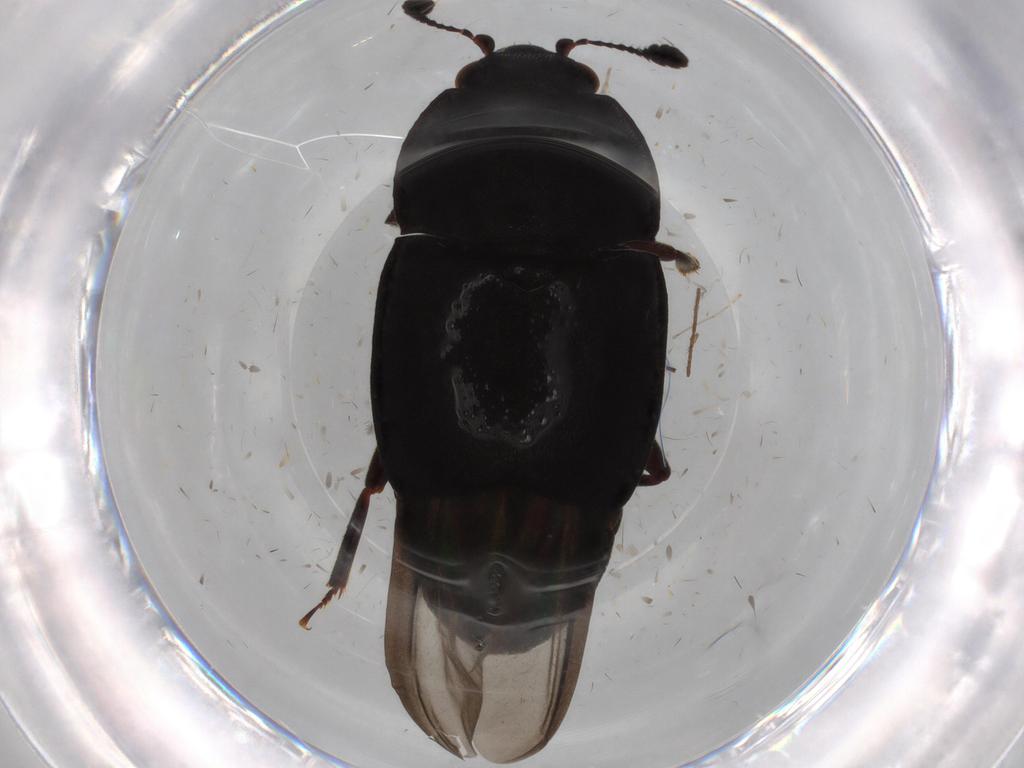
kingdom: Animalia
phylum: Arthropoda
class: Insecta
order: Coleoptera
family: Nitidulidae
